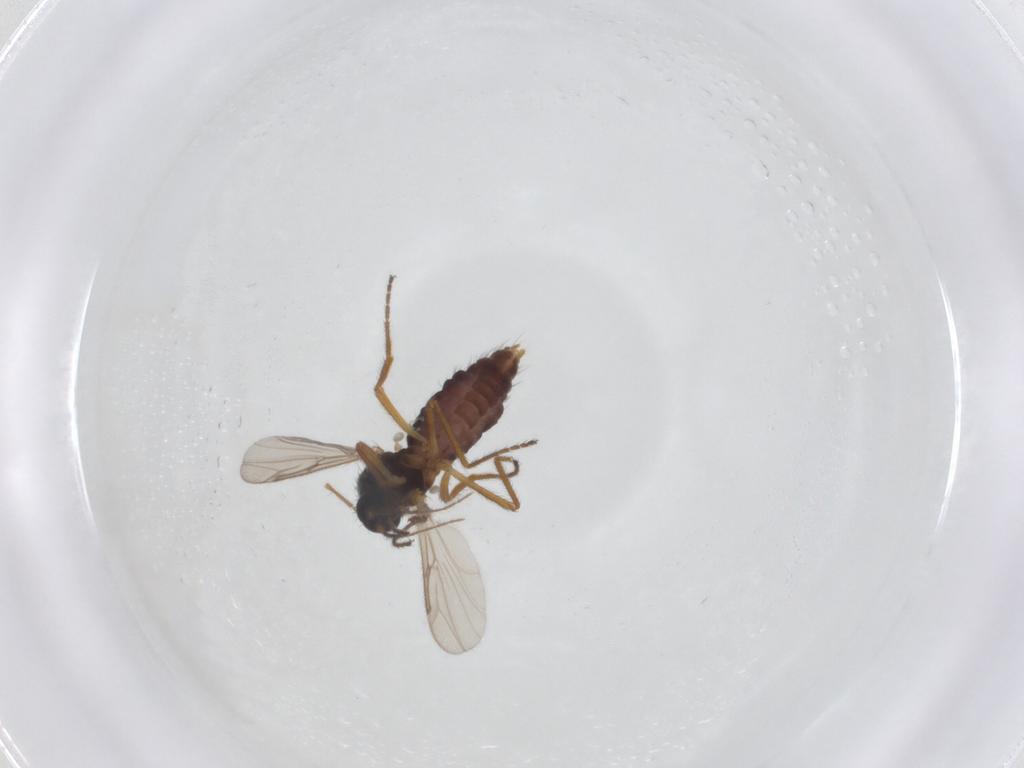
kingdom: Animalia
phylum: Arthropoda
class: Insecta
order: Diptera
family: Ceratopogonidae
